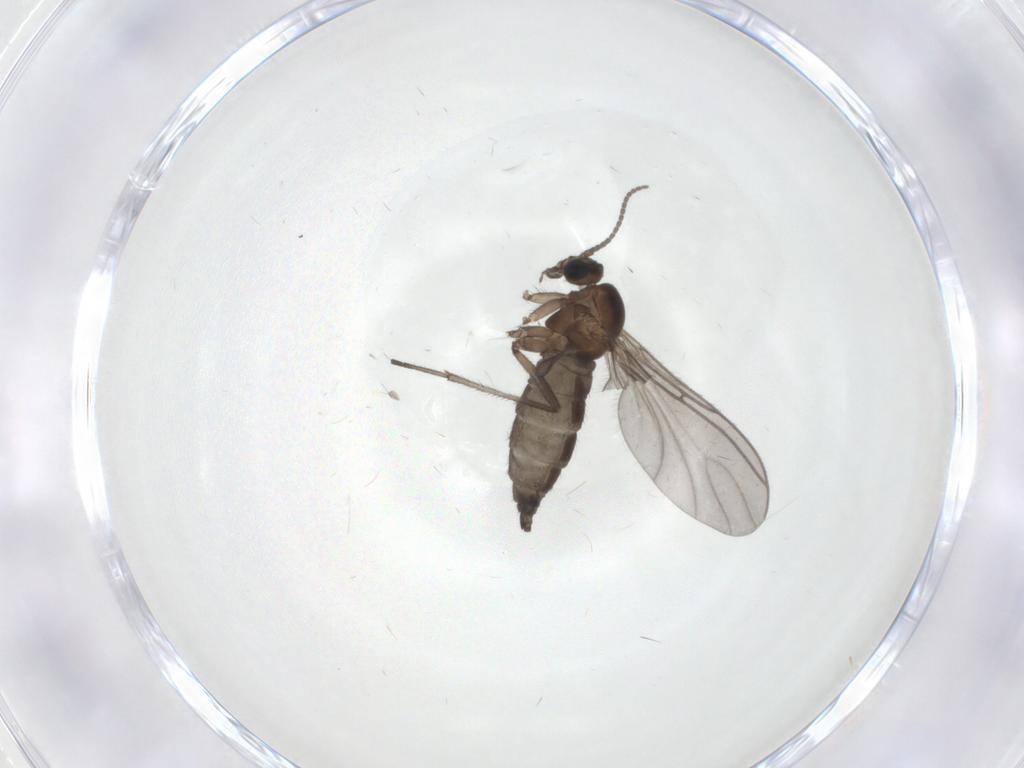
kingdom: Animalia
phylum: Arthropoda
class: Insecta
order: Diptera
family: Sciaridae
